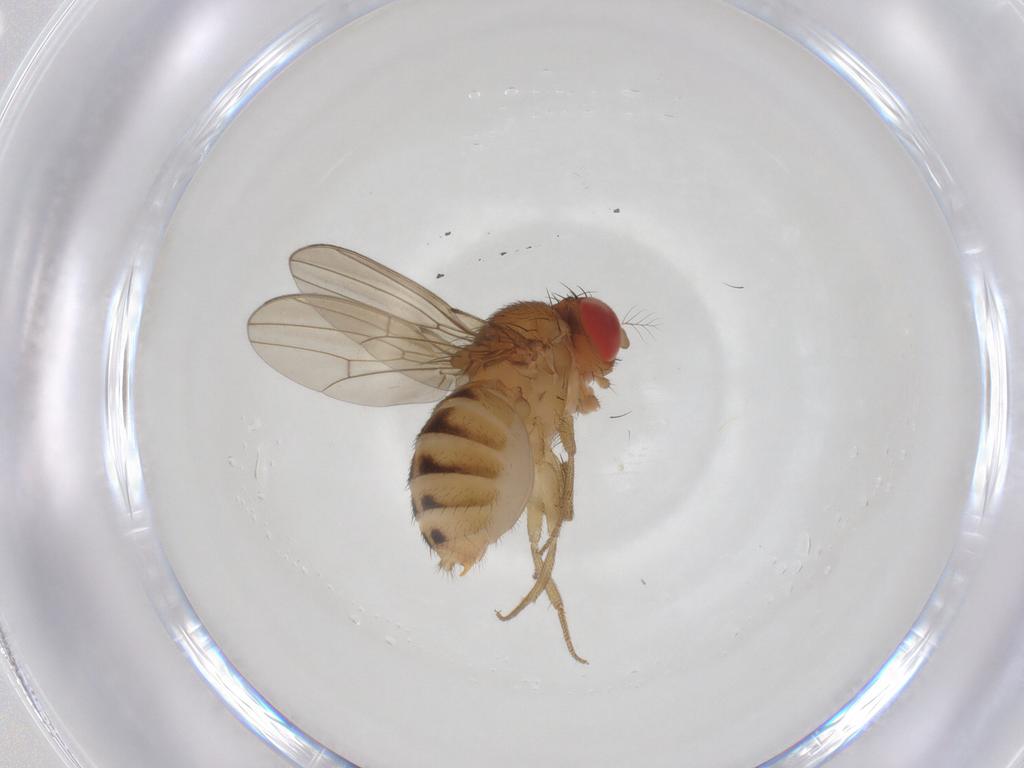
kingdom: Animalia
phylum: Arthropoda
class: Insecta
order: Diptera
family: Drosophilidae
